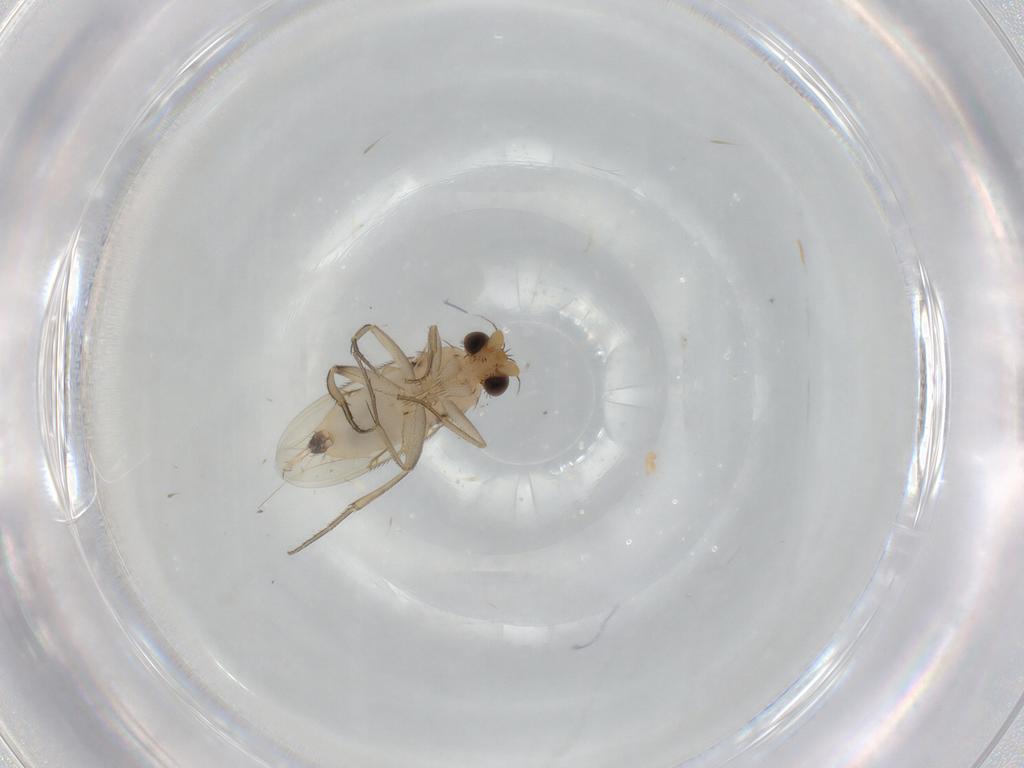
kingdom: Animalia
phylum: Arthropoda
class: Insecta
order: Diptera
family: Phoridae
